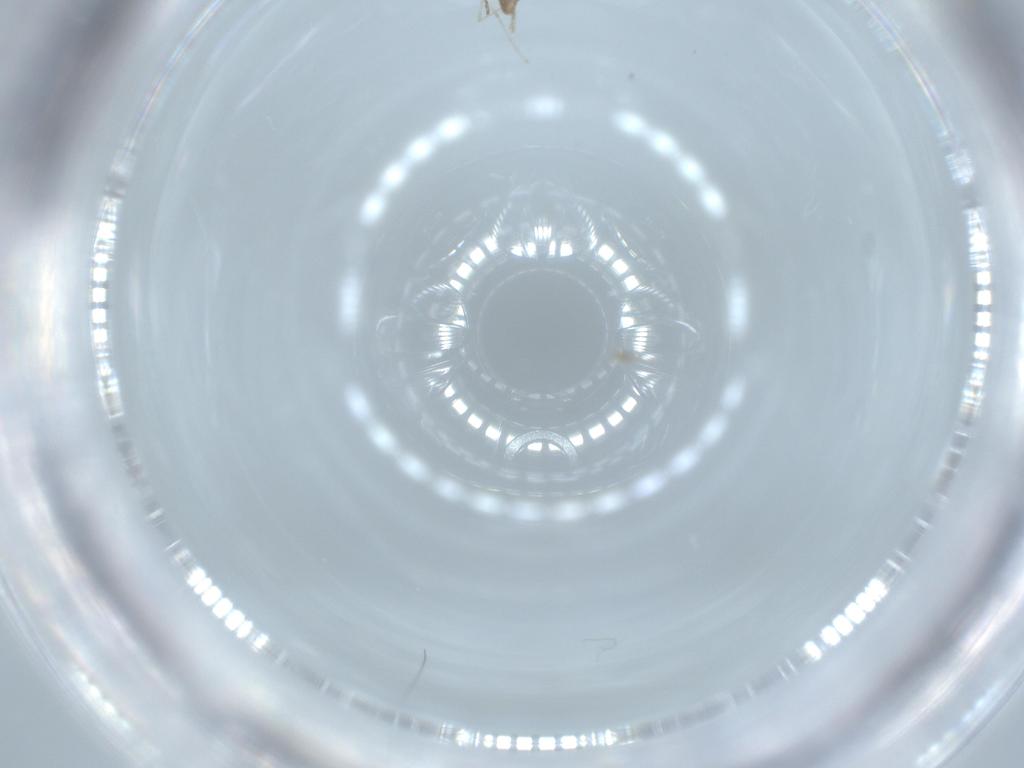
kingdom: Animalia
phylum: Arthropoda
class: Insecta
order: Diptera
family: Cecidomyiidae
